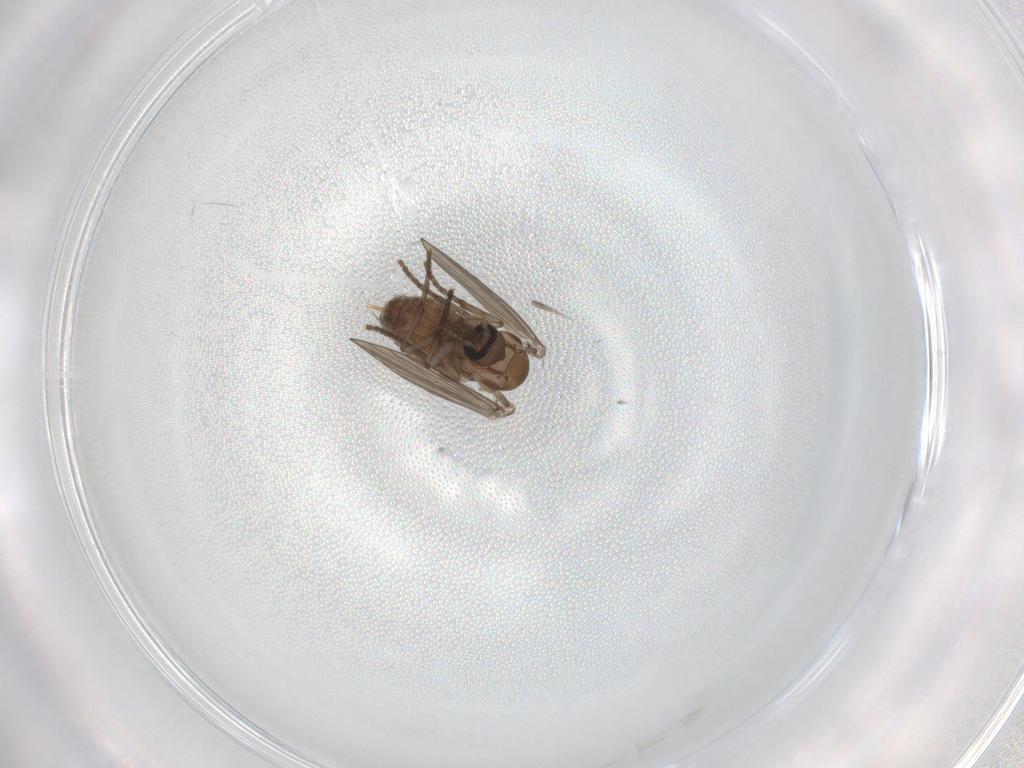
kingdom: Animalia
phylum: Arthropoda
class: Insecta
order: Diptera
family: Psychodidae
